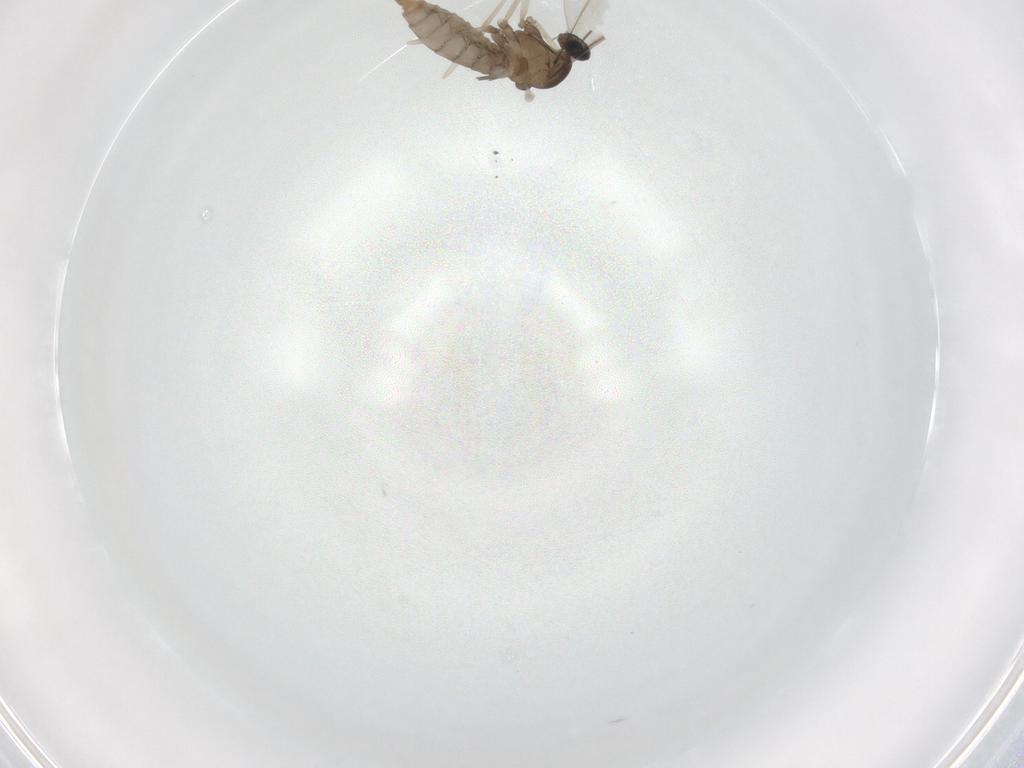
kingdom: Animalia
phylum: Arthropoda
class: Insecta
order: Diptera
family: Cecidomyiidae
